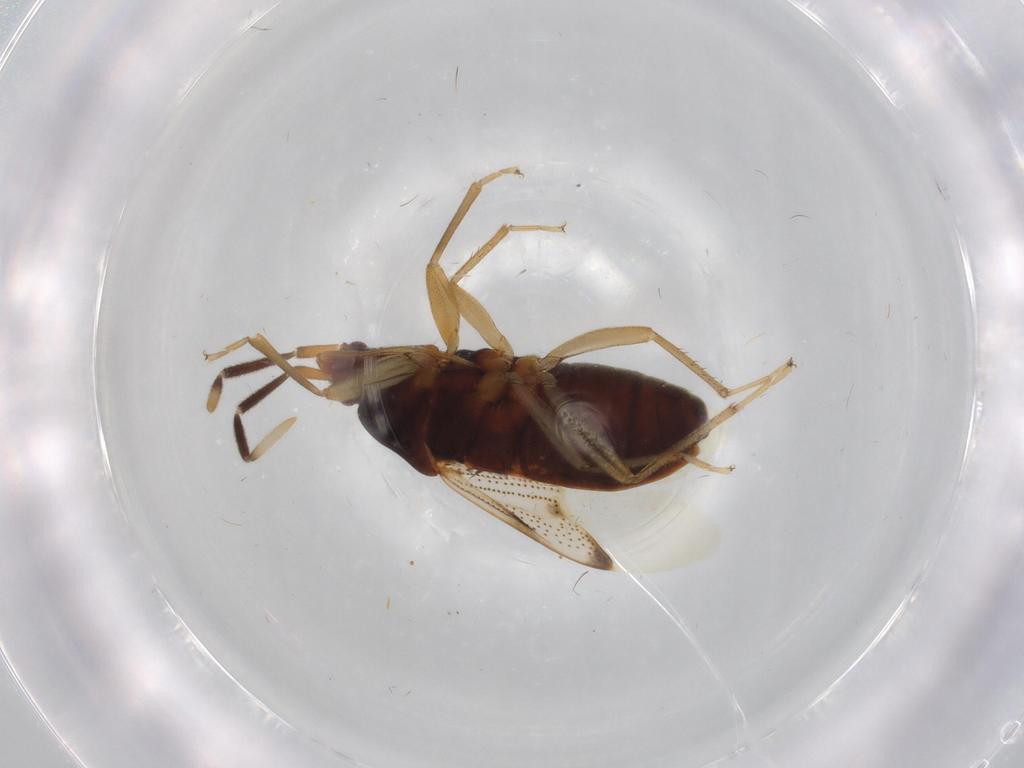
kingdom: Animalia
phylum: Arthropoda
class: Insecta
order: Hemiptera
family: Rhyparochromidae
